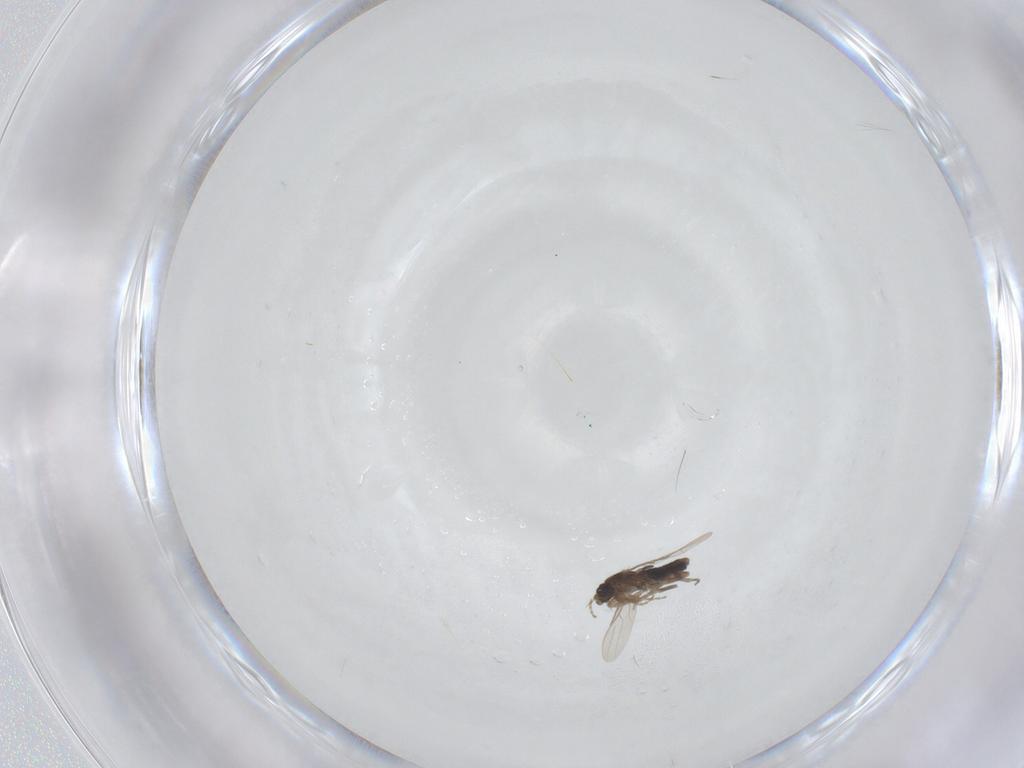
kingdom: Animalia
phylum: Arthropoda
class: Insecta
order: Diptera
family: Phoridae
